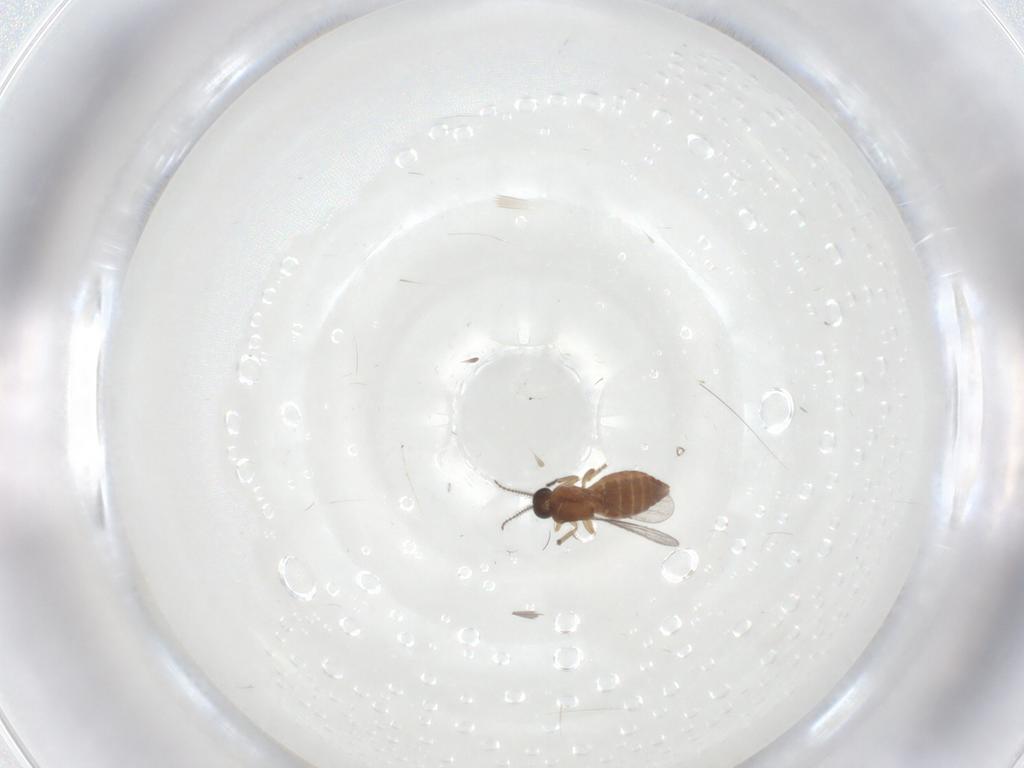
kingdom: Animalia
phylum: Arthropoda
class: Insecta
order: Diptera
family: Ceratopogonidae
